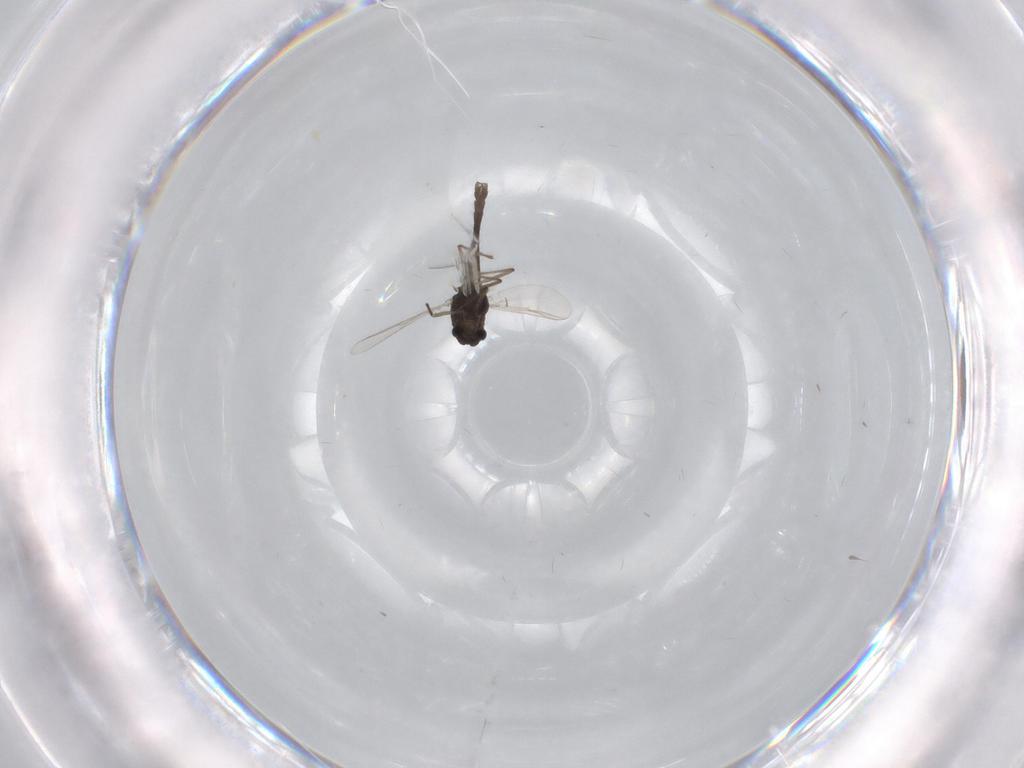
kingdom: Animalia
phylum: Arthropoda
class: Insecta
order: Diptera
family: Chironomidae
